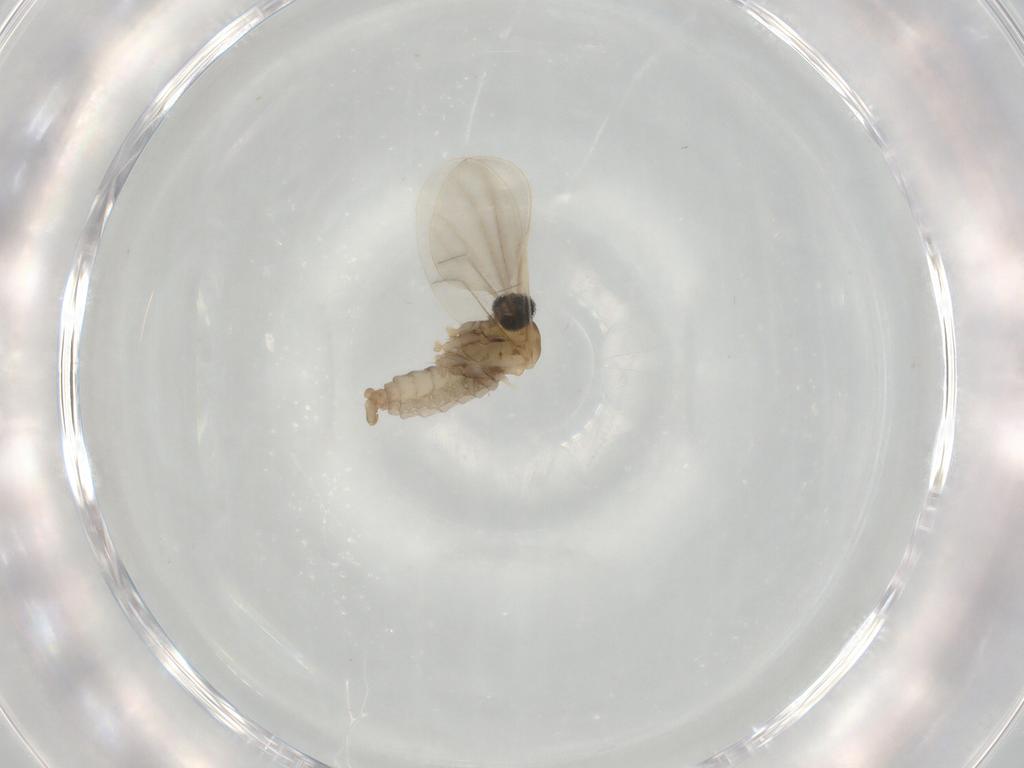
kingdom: Animalia
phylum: Arthropoda
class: Insecta
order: Diptera
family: Cecidomyiidae
